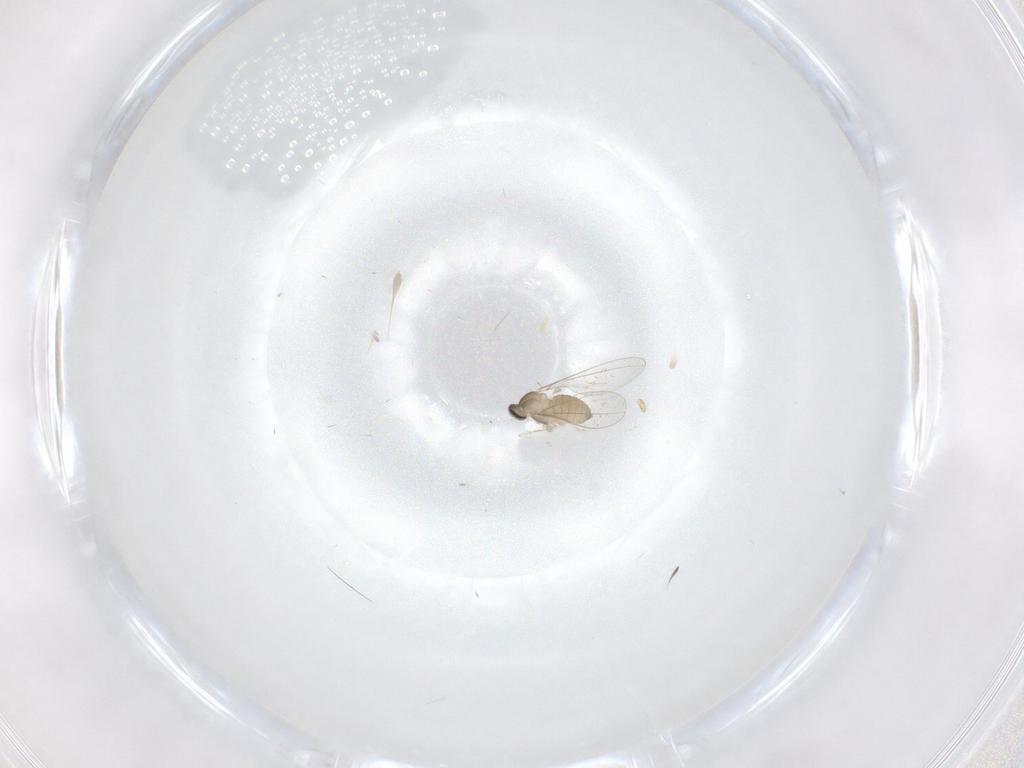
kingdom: Animalia
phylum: Arthropoda
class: Insecta
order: Diptera
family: Cecidomyiidae
